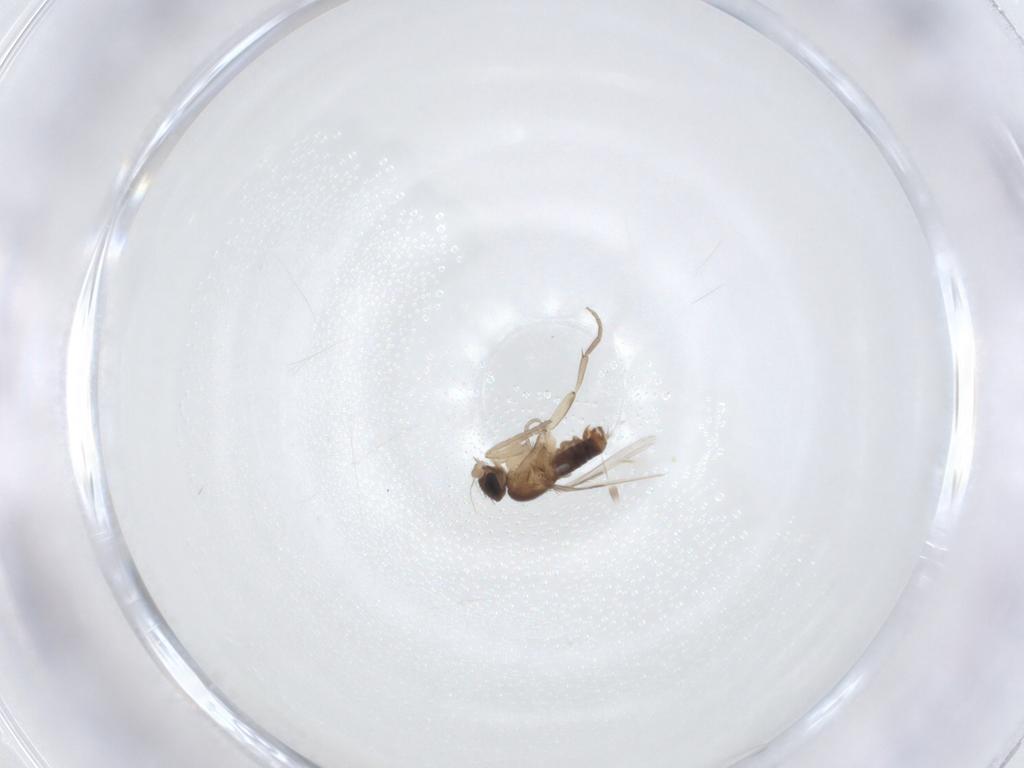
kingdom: Animalia
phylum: Arthropoda
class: Insecta
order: Diptera
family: Phoridae
